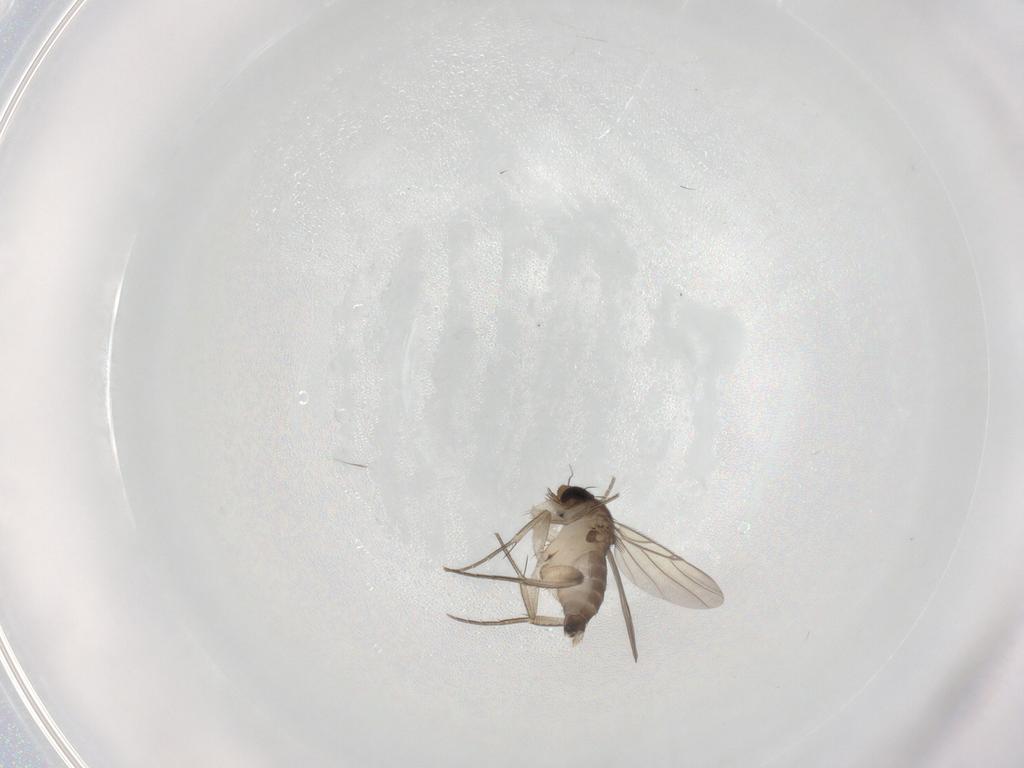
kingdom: Animalia
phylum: Arthropoda
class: Insecta
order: Diptera
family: Phoridae
